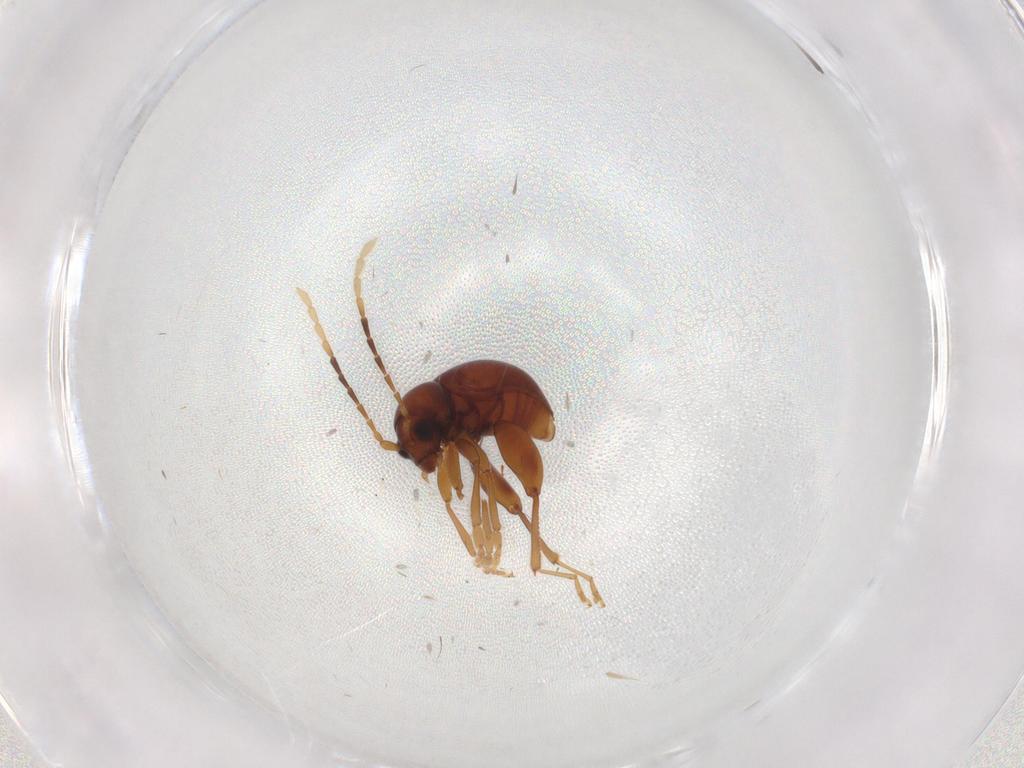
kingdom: Animalia
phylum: Arthropoda
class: Insecta
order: Coleoptera
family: Chrysomelidae
